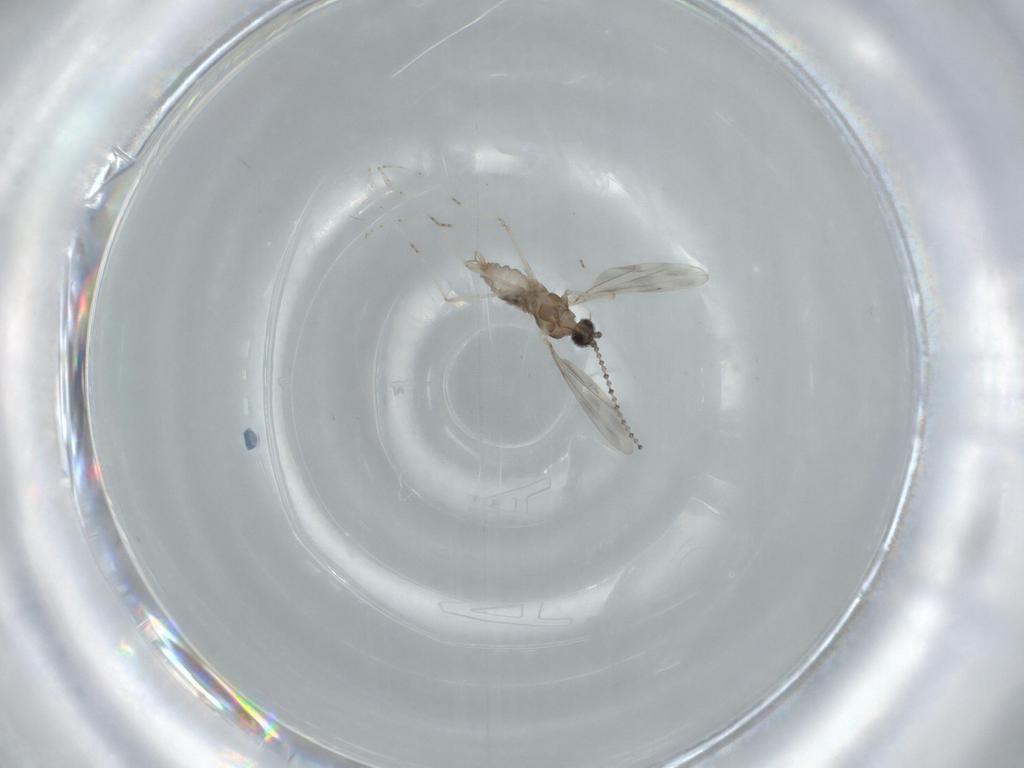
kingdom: Animalia
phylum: Arthropoda
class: Insecta
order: Diptera
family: Cecidomyiidae
